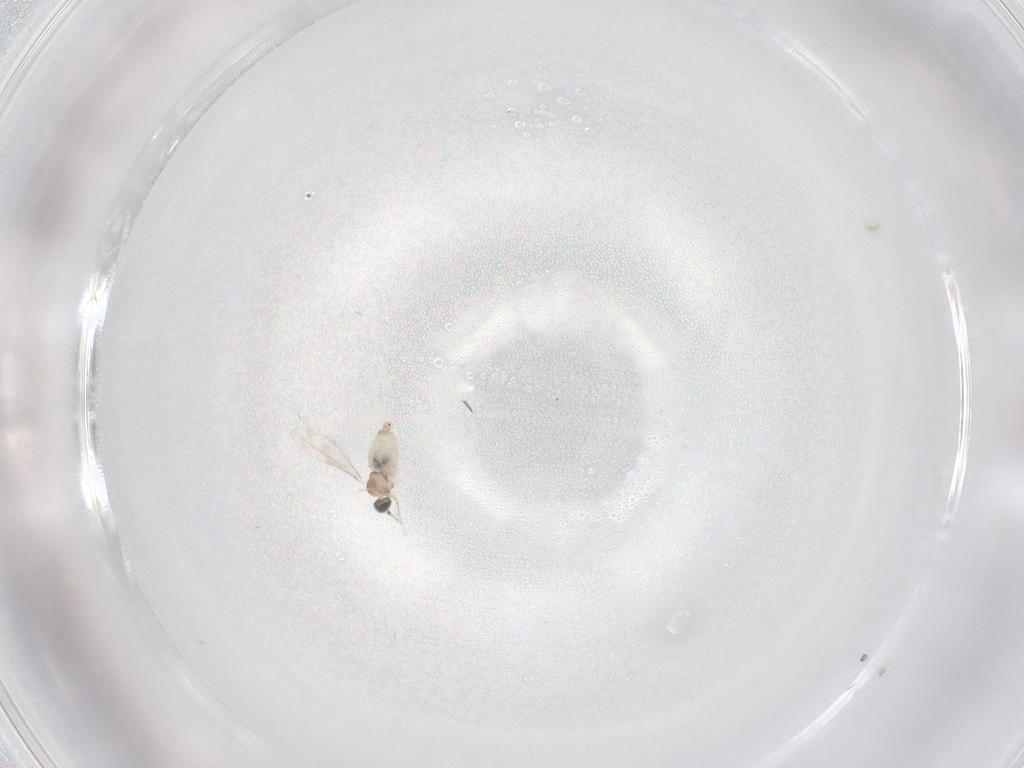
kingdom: Animalia
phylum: Arthropoda
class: Insecta
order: Diptera
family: Cecidomyiidae
